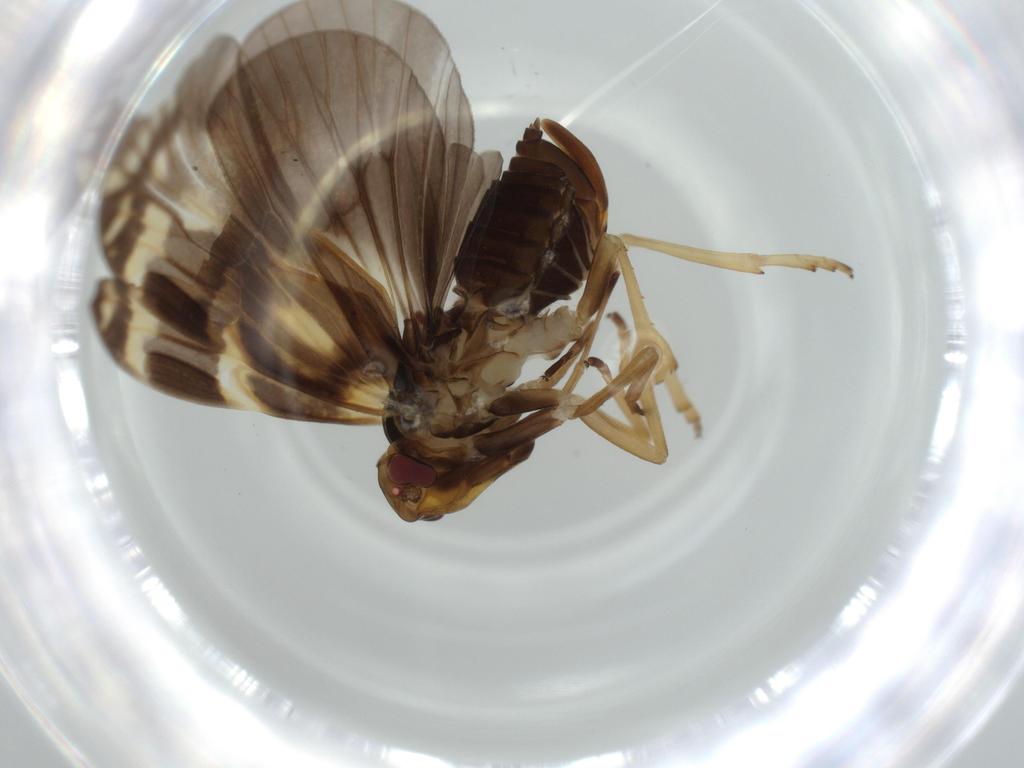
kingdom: Animalia
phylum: Arthropoda
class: Insecta
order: Hemiptera
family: Cixiidae
